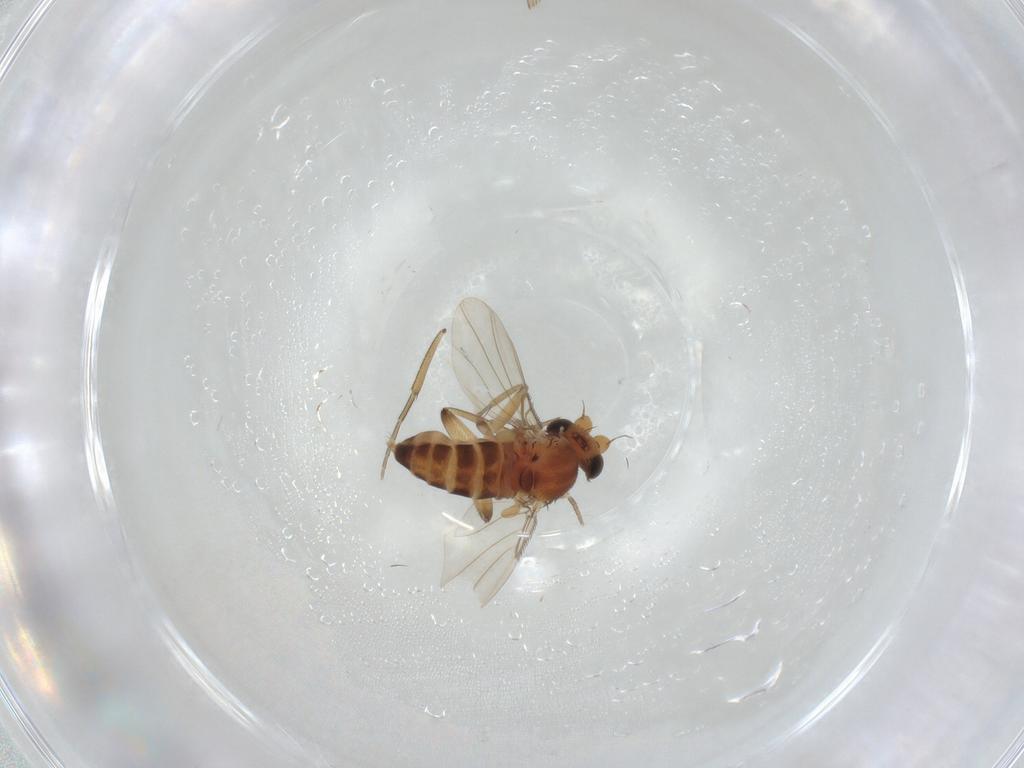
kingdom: Animalia
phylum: Arthropoda
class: Insecta
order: Diptera
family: Phoridae
